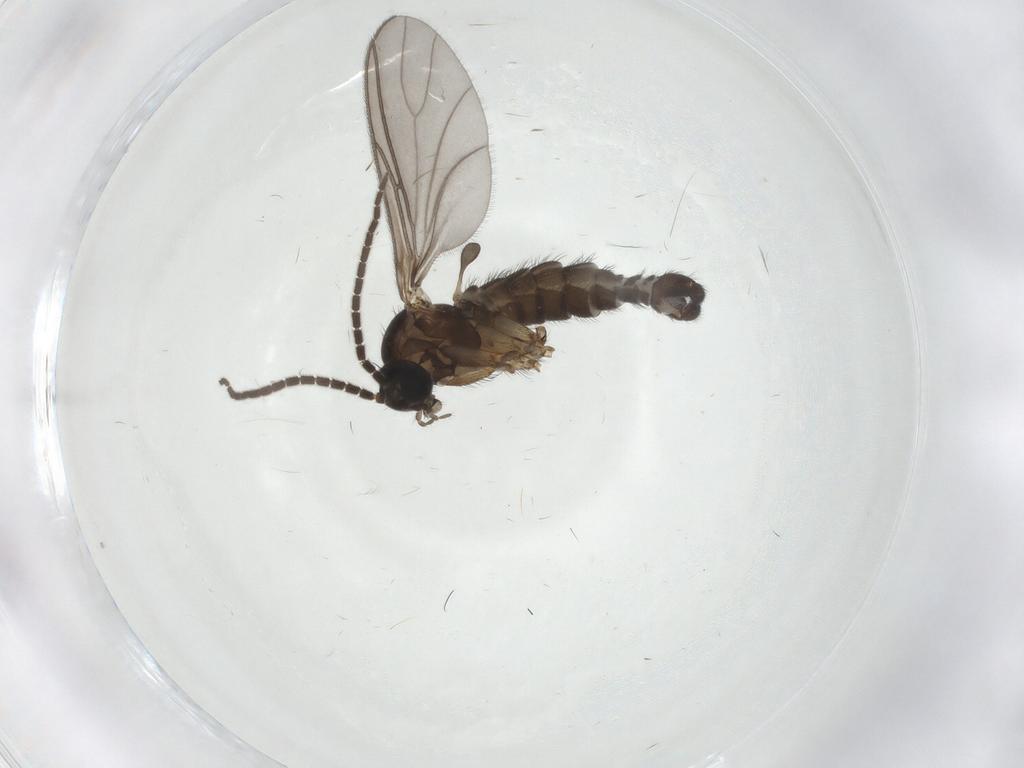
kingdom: Animalia
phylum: Arthropoda
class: Insecta
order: Diptera
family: Sciaridae
